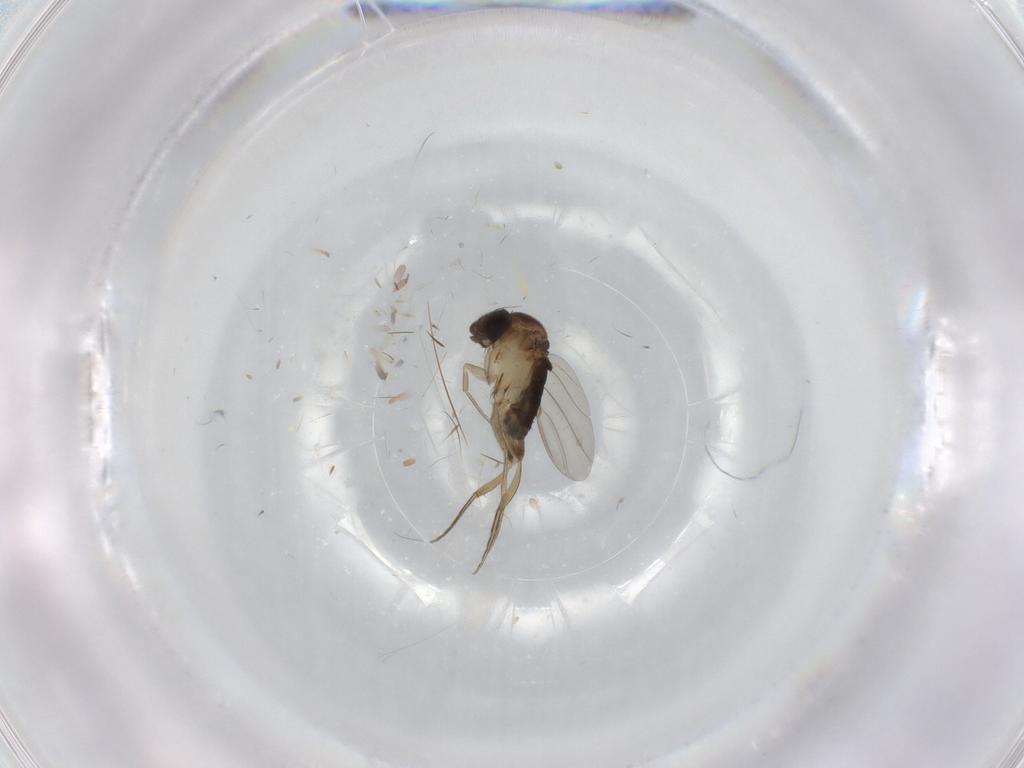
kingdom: Animalia
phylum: Arthropoda
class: Insecta
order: Diptera
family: Phoridae
